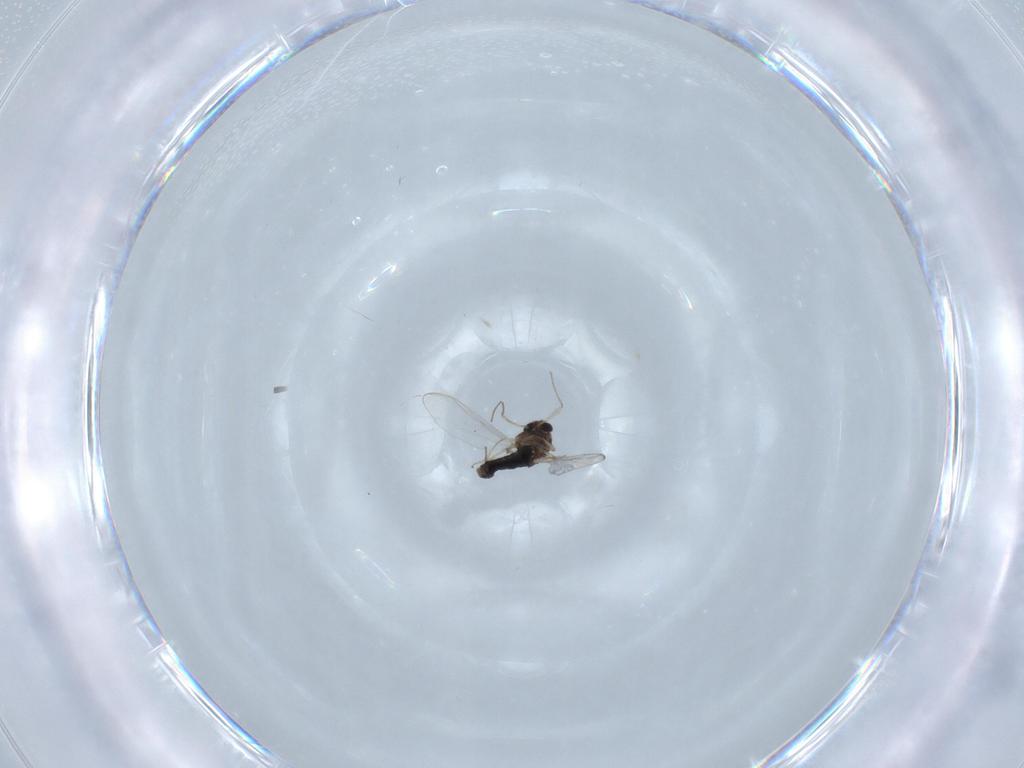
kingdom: Animalia
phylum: Arthropoda
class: Insecta
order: Diptera
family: Chironomidae
